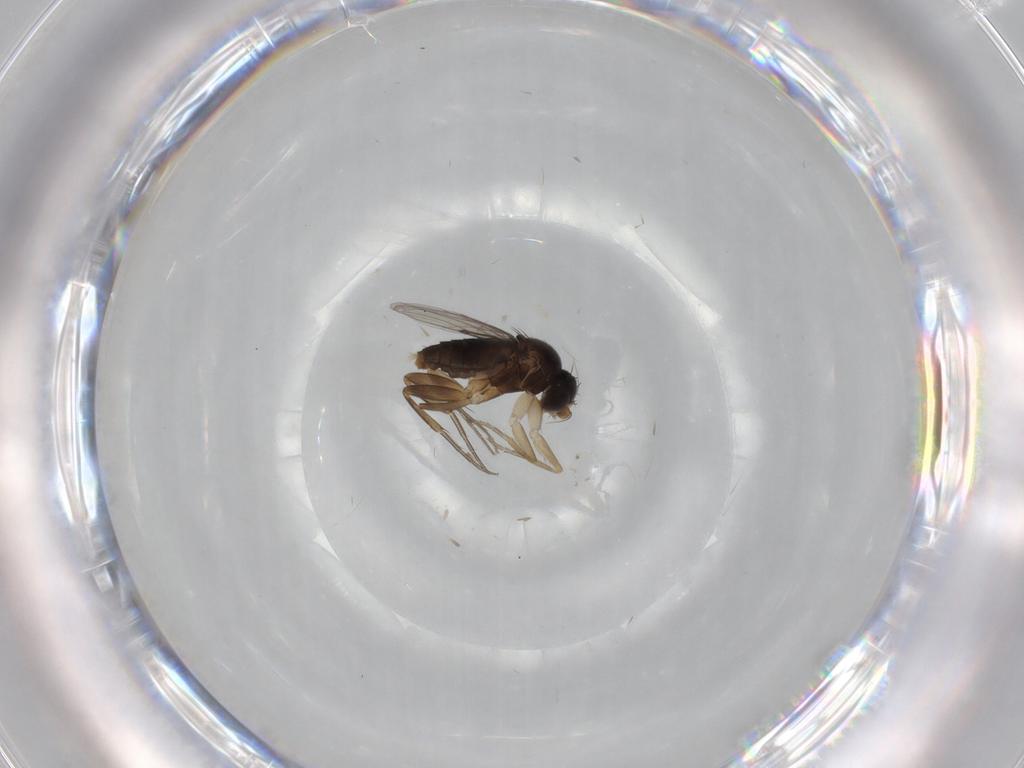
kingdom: Animalia
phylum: Arthropoda
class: Insecta
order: Diptera
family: Phoridae
